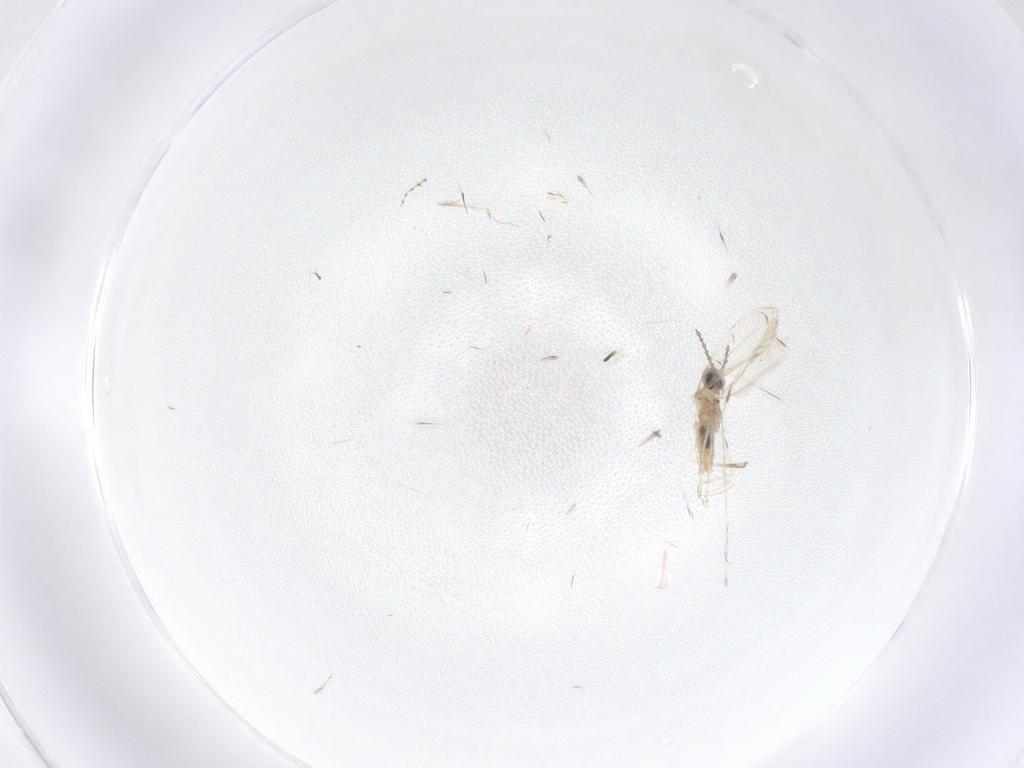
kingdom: Animalia
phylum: Arthropoda
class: Insecta
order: Diptera
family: Cecidomyiidae
